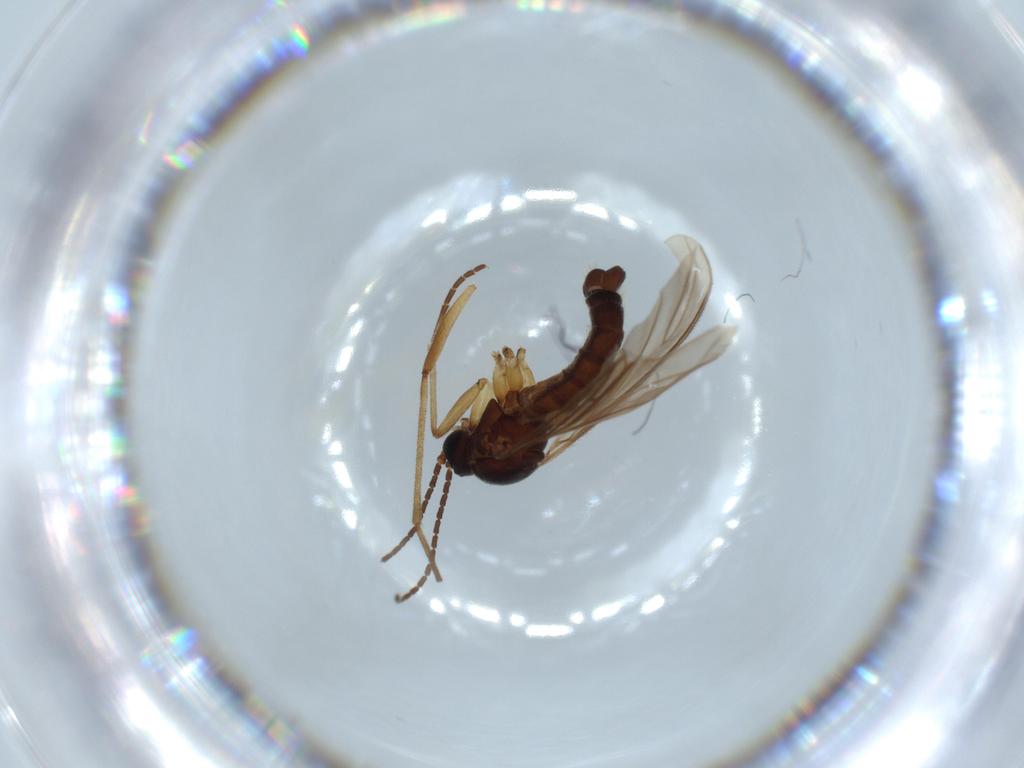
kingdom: Animalia
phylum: Arthropoda
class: Insecta
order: Diptera
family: Sciaridae
